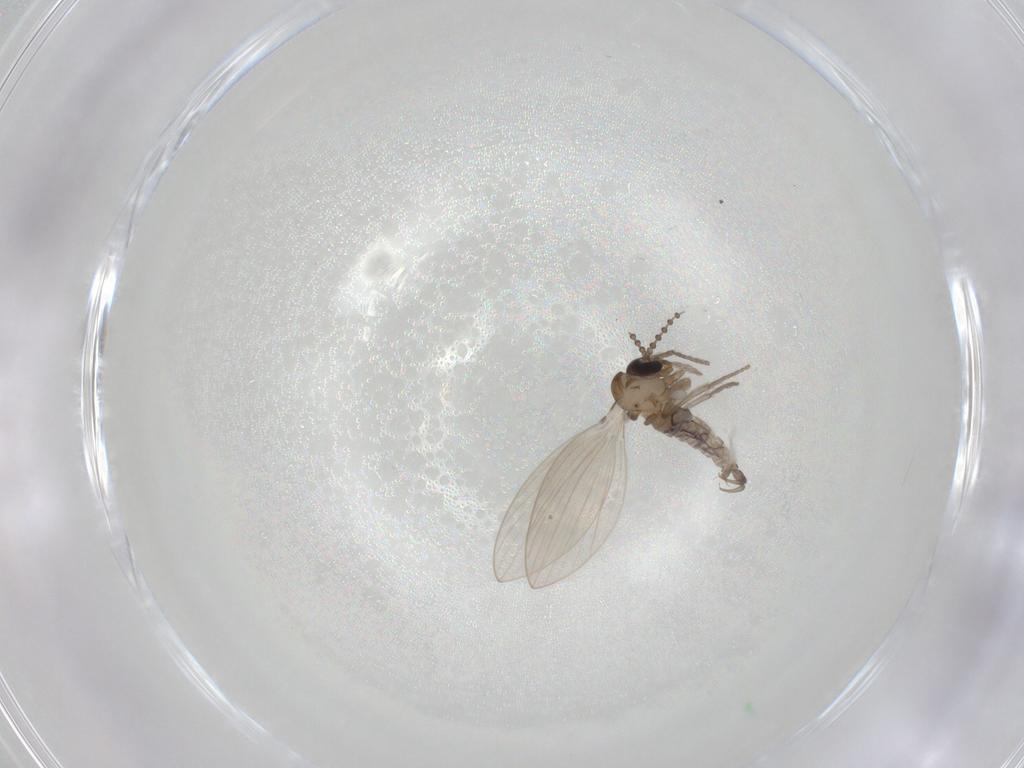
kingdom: Animalia
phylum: Arthropoda
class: Insecta
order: Diptera
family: Psychodidae
